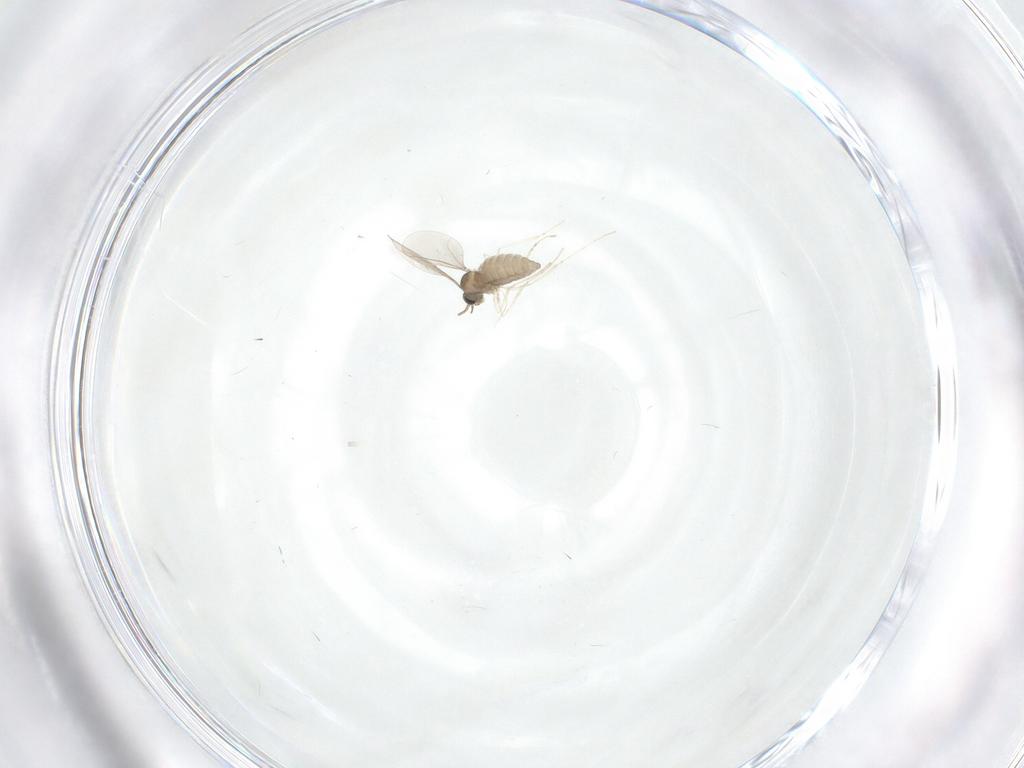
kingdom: Animalia
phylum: Arthropoda
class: Insecta
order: Diptera
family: Cecidomyiidae
